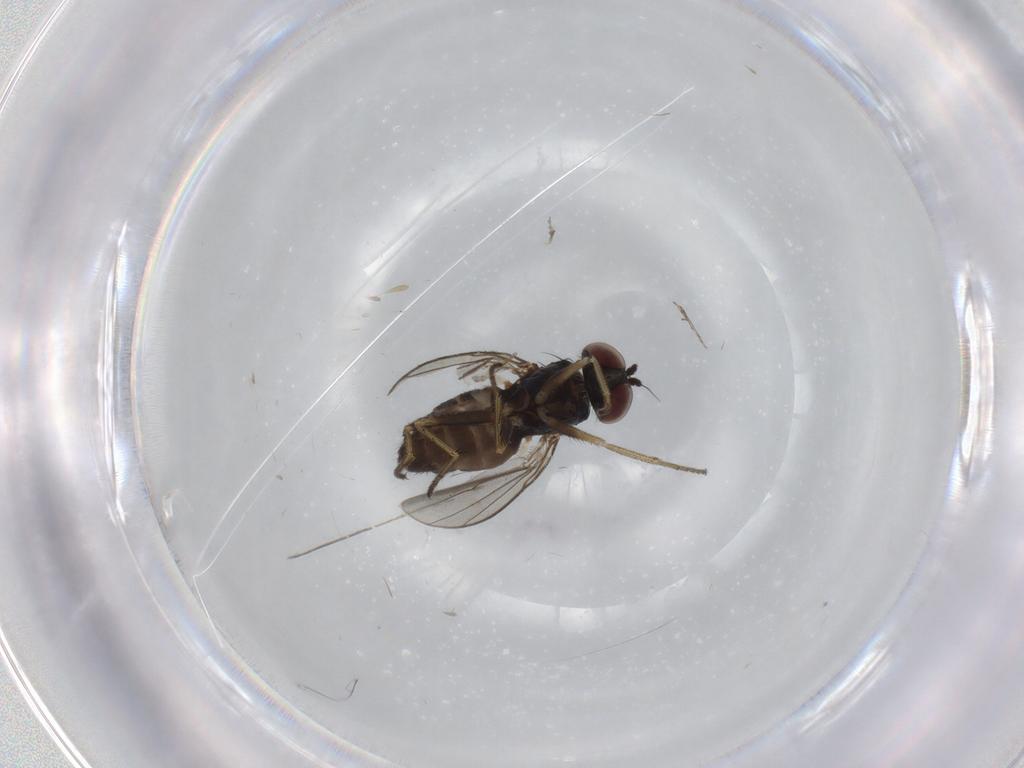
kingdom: Animalia
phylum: Arthropoda
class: Insecta
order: Diptera
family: Dolichopodidae
